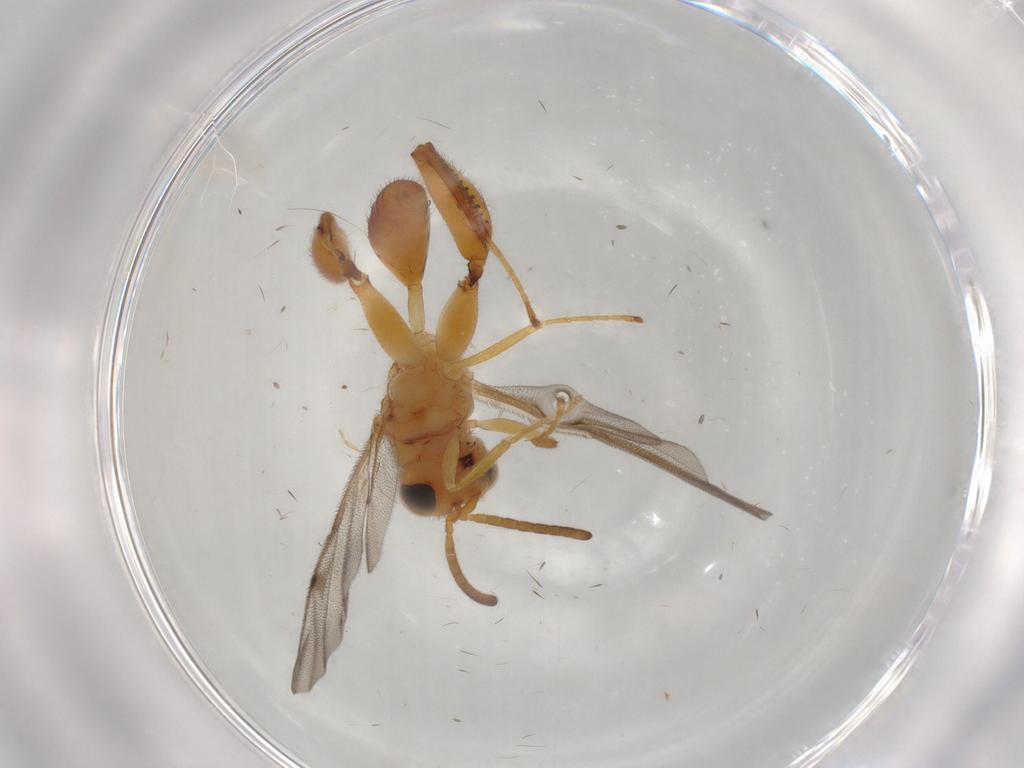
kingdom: Animalia
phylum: Arthropoda
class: Insecta
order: Hymenoptera
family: Chalcididae
